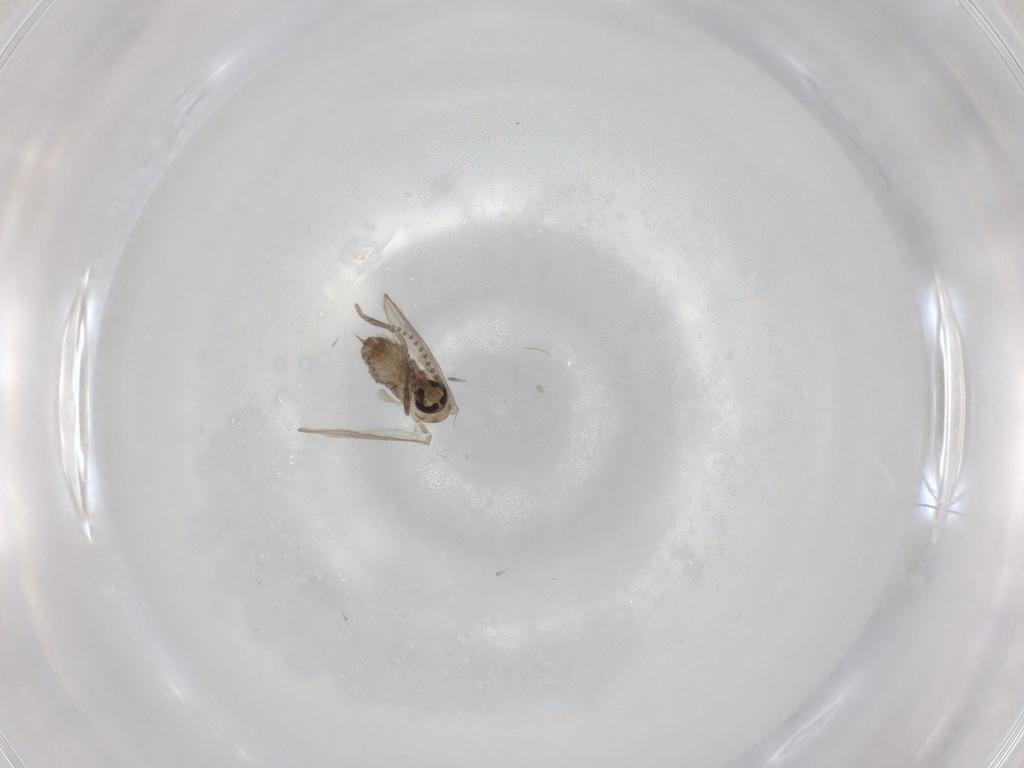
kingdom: Animalia
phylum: Arthropoda
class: Insecta
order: Diptera
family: Psychodidae
